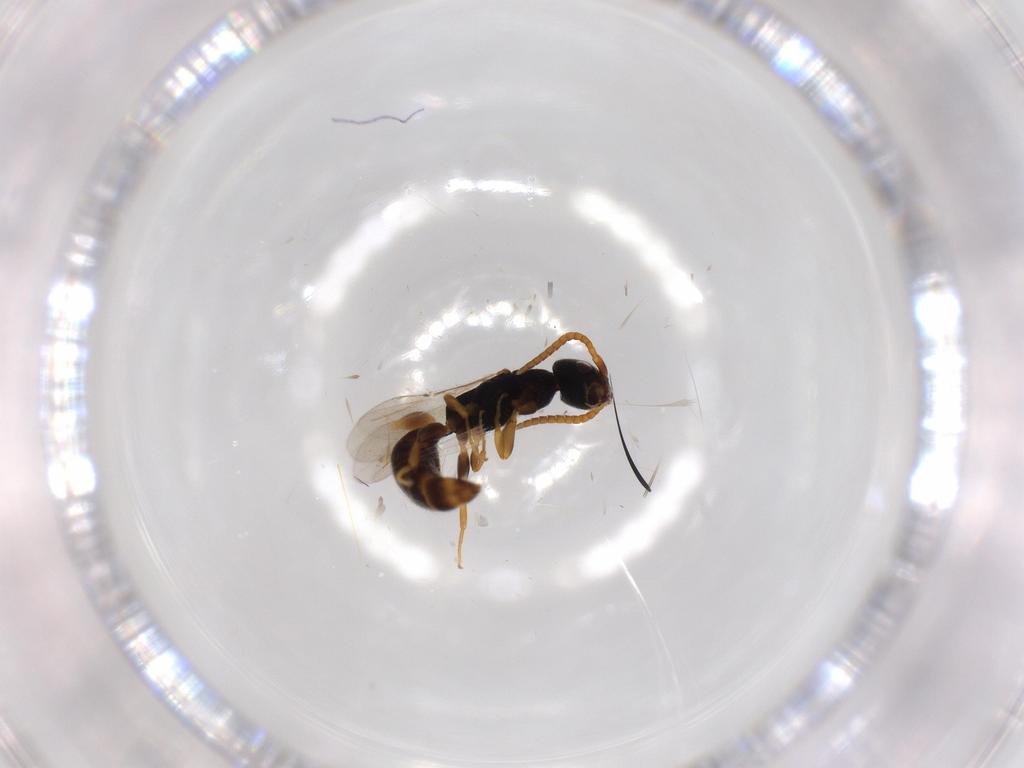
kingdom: Animalia
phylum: Arthropoda
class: Insecta
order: Hymenoptera
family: Bethylidae
